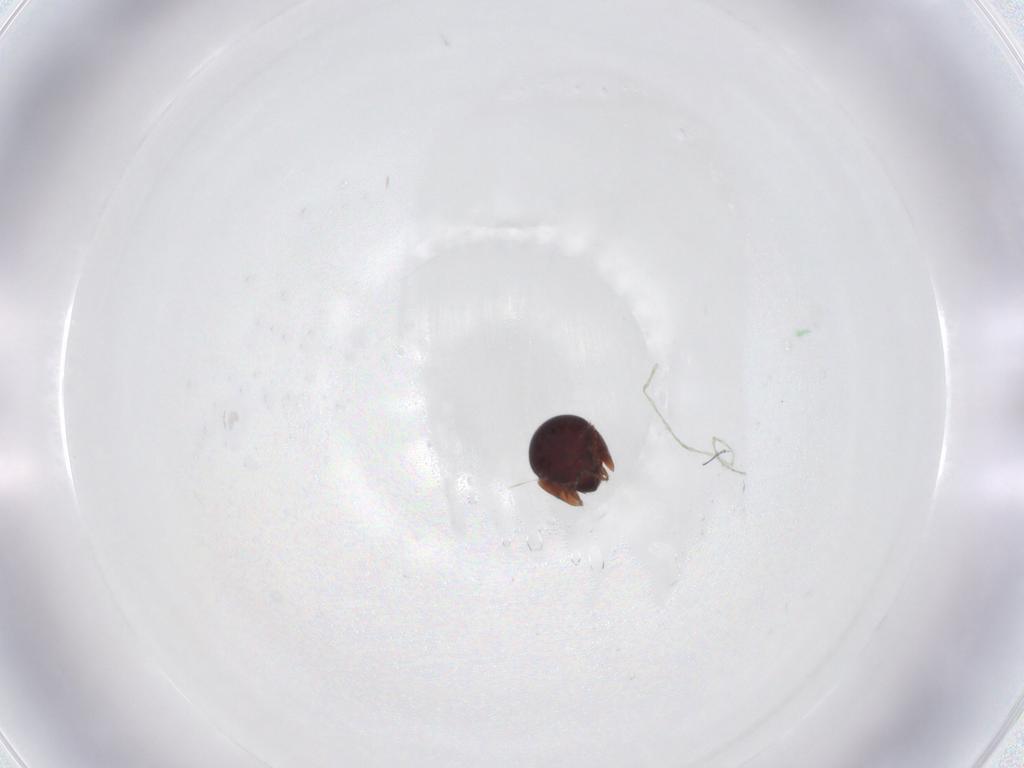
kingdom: Animalia
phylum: Arthropoda
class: Arachnida
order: Sarcoptiformes
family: Galumnidae
